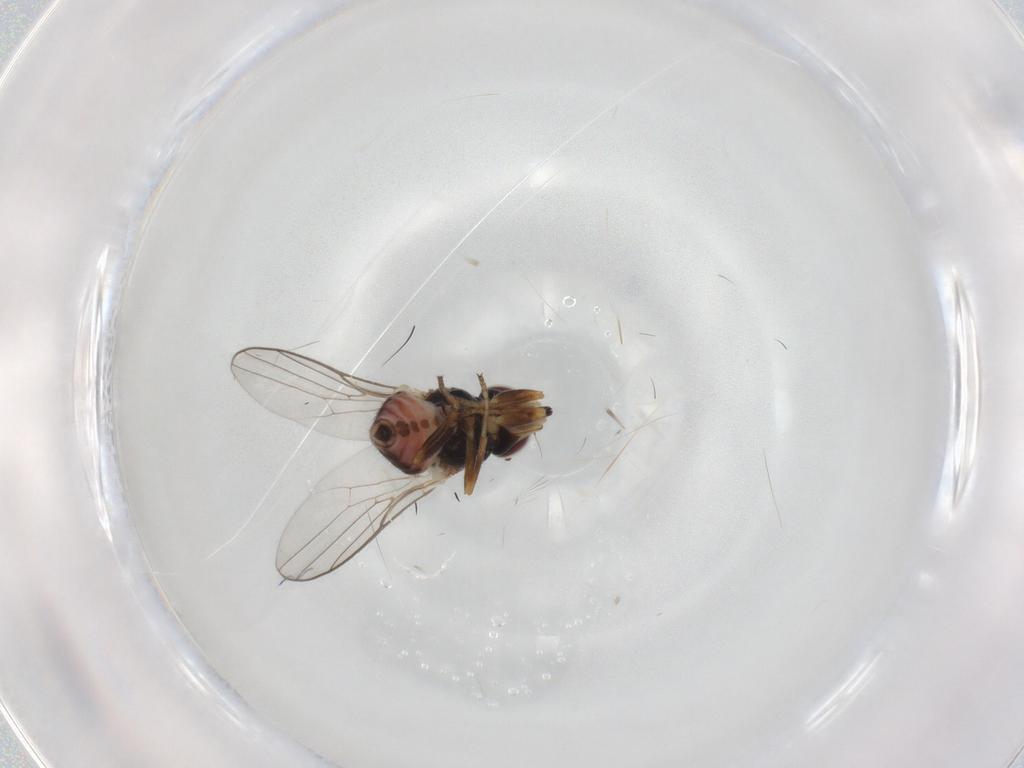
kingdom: Animalia
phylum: Arthropoda
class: Insecta
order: Diptera
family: Chloropidae
